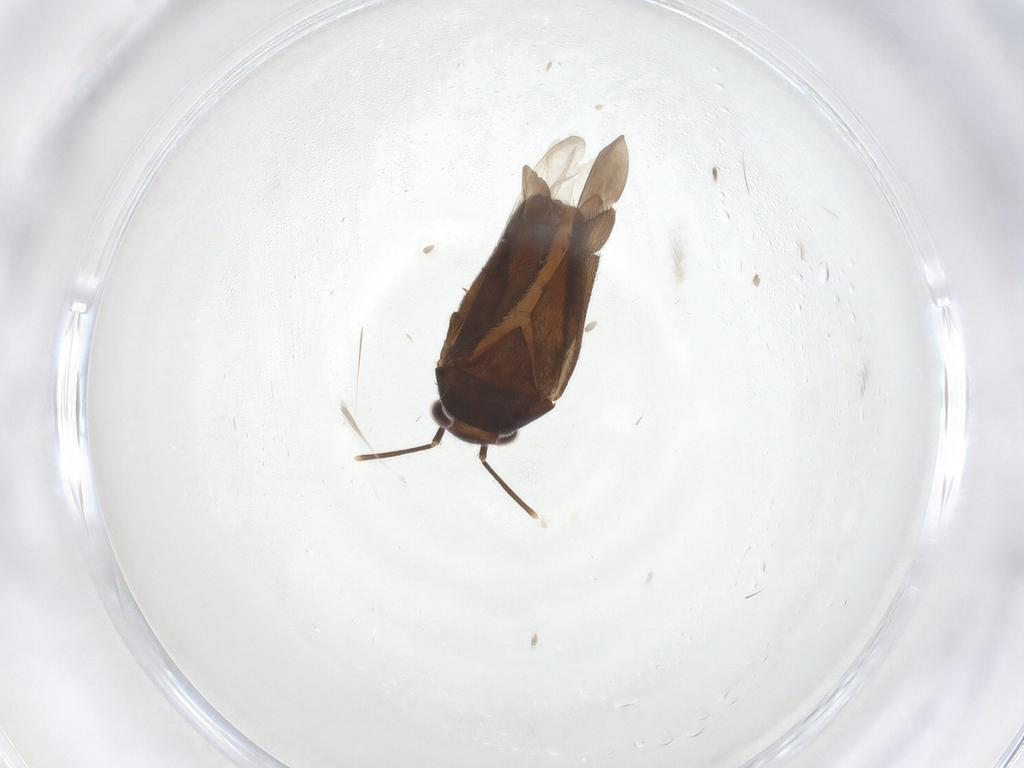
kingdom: Animalia
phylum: Arthropoda
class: Insecta
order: Hemiptera
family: Miridae
